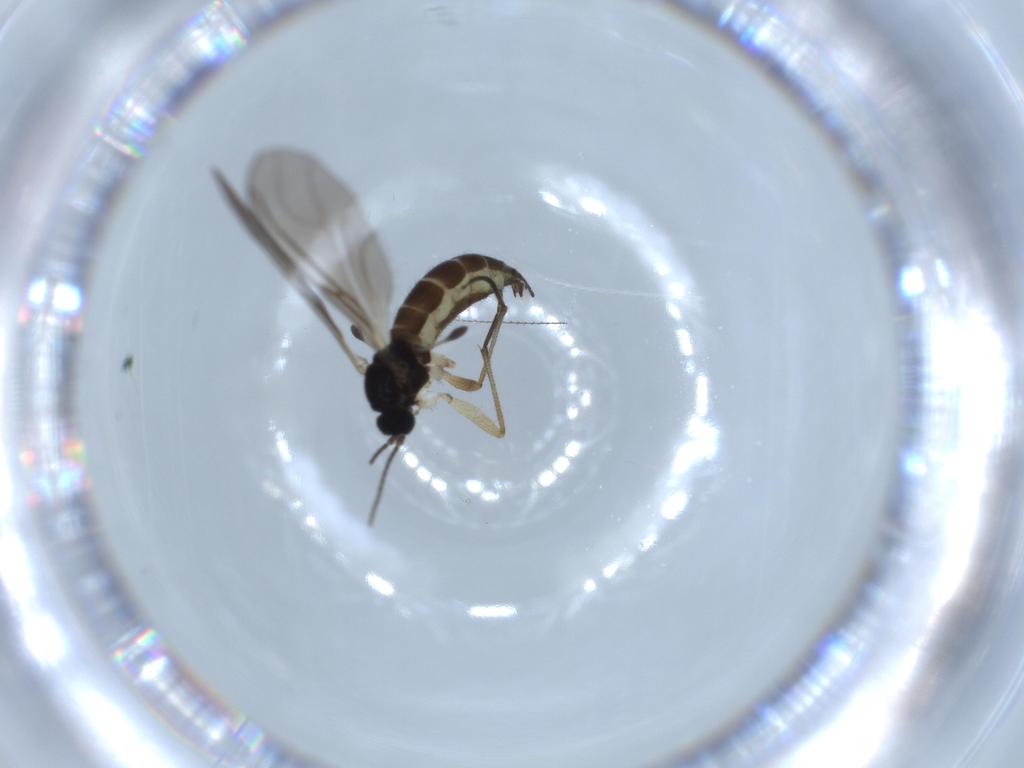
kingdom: Animalia
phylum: Arthropoda
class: Insecta
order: Diptera
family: Sciaridae
